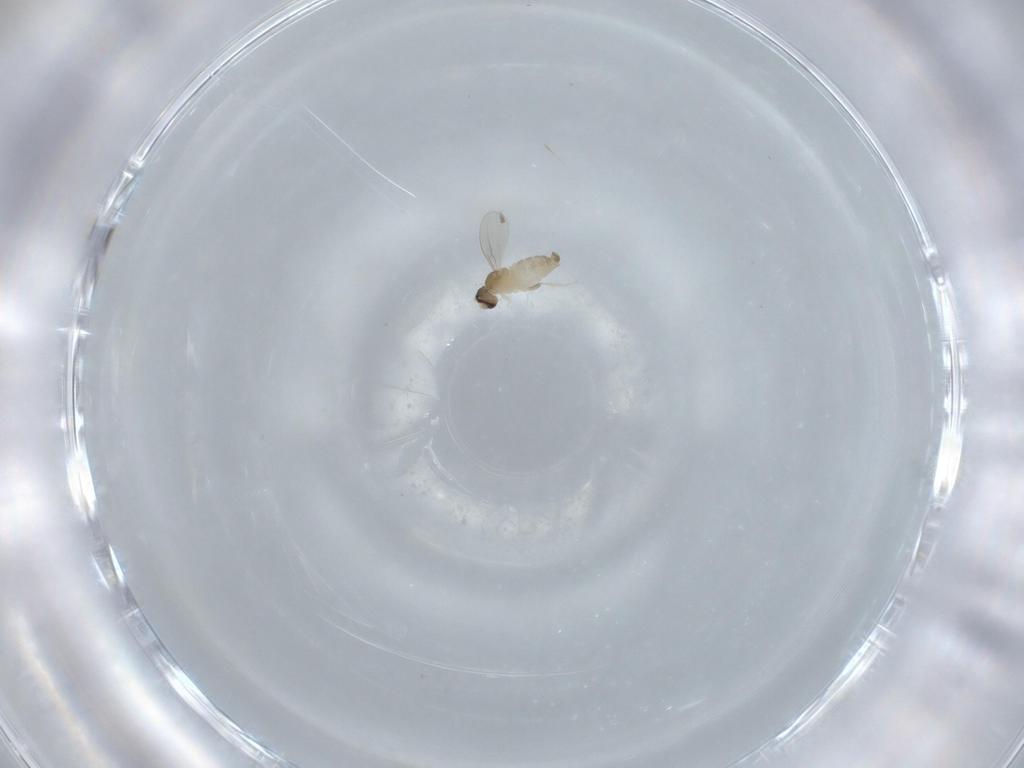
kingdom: Animalia
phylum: Arthropoda
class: Insecta
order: Diptera
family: Cecidomyiidae
